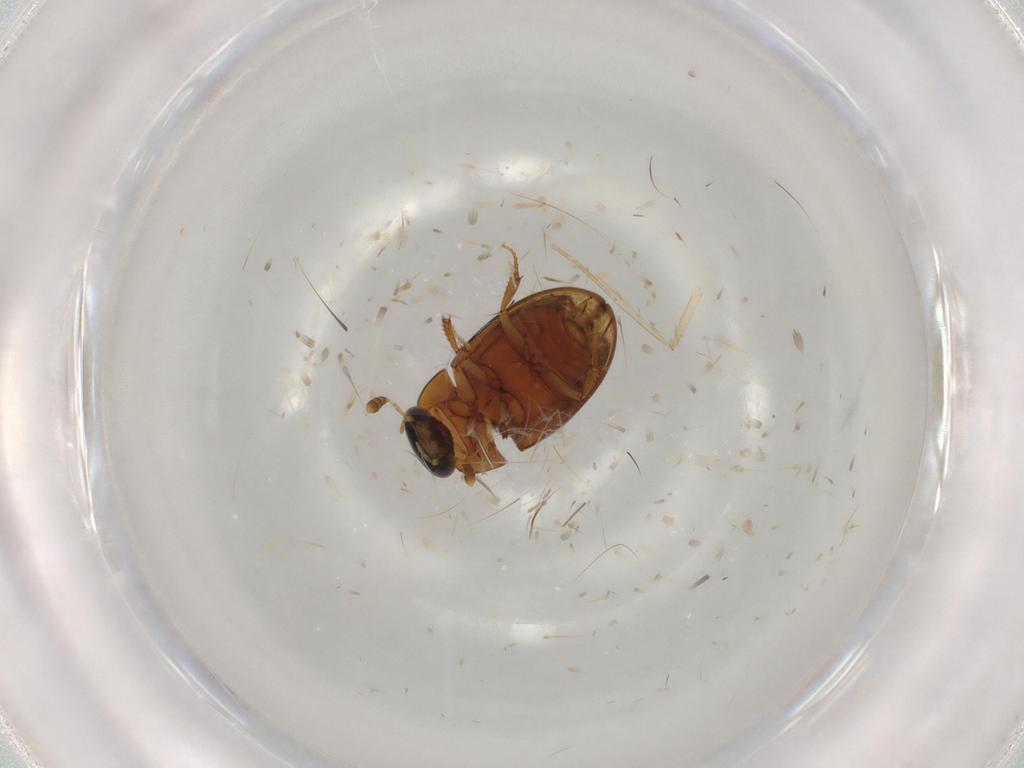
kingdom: Animalia
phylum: Arthropoda
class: Insecta
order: Coleoptera
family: Hydrophilidae
